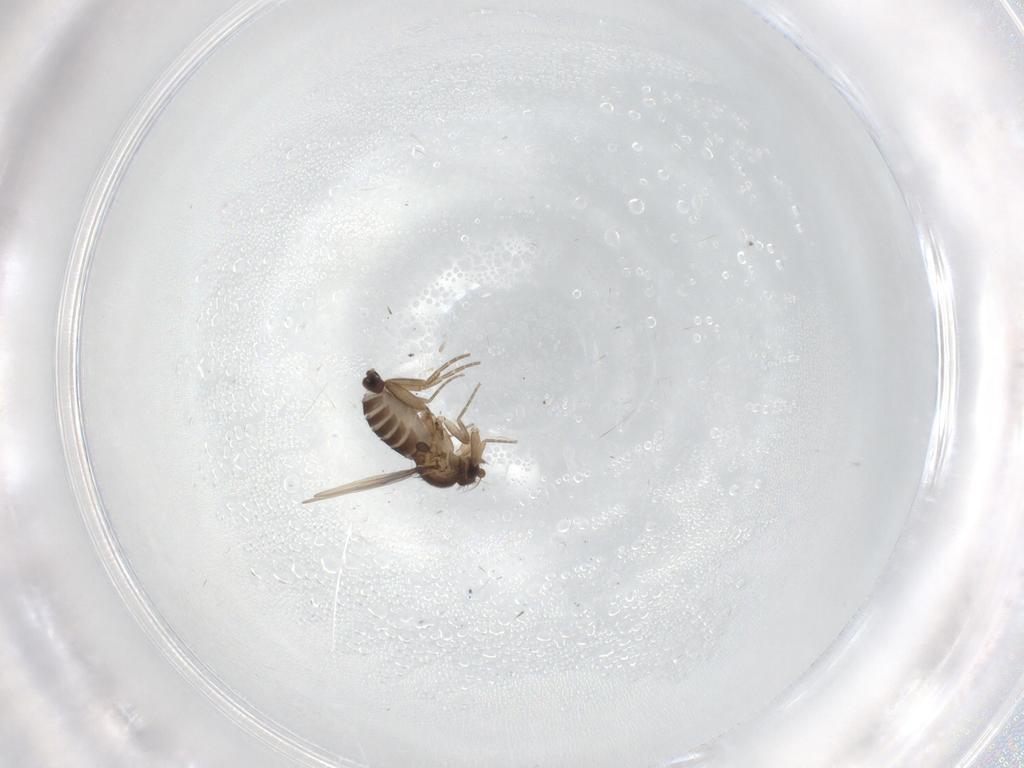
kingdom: Animalia
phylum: Arthropoda
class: Insecta
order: Diptera
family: Phoridae
